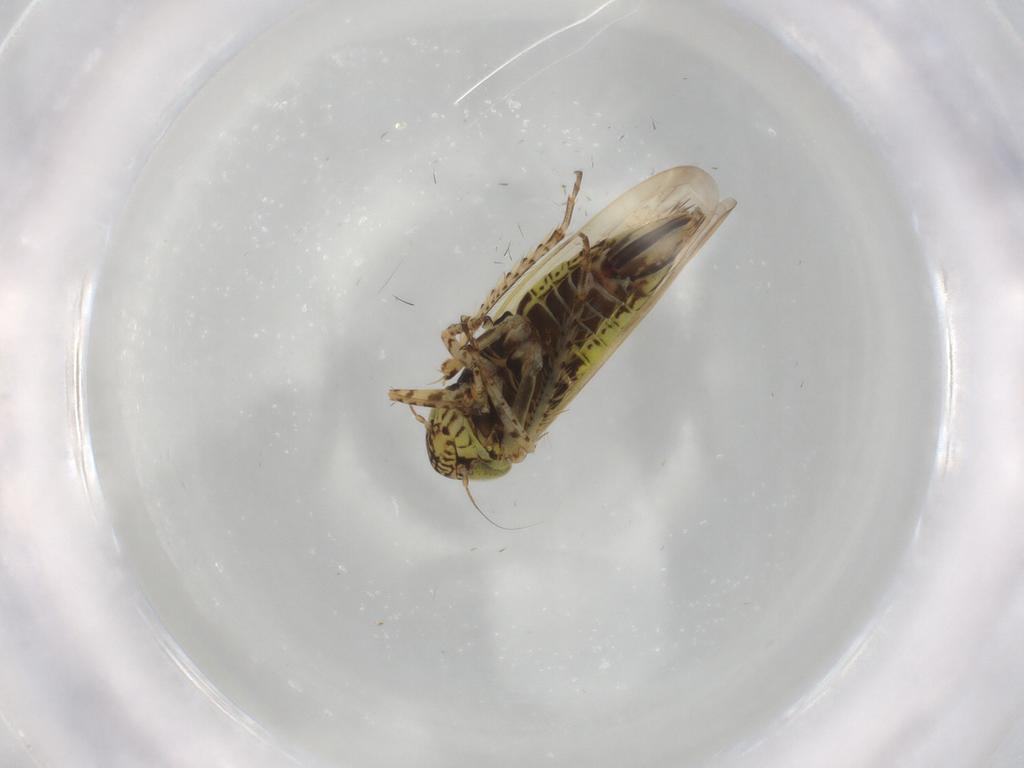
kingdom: Animalia
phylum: Arthropoda
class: Insecta
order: Hemiptera
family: Cicadellidae
